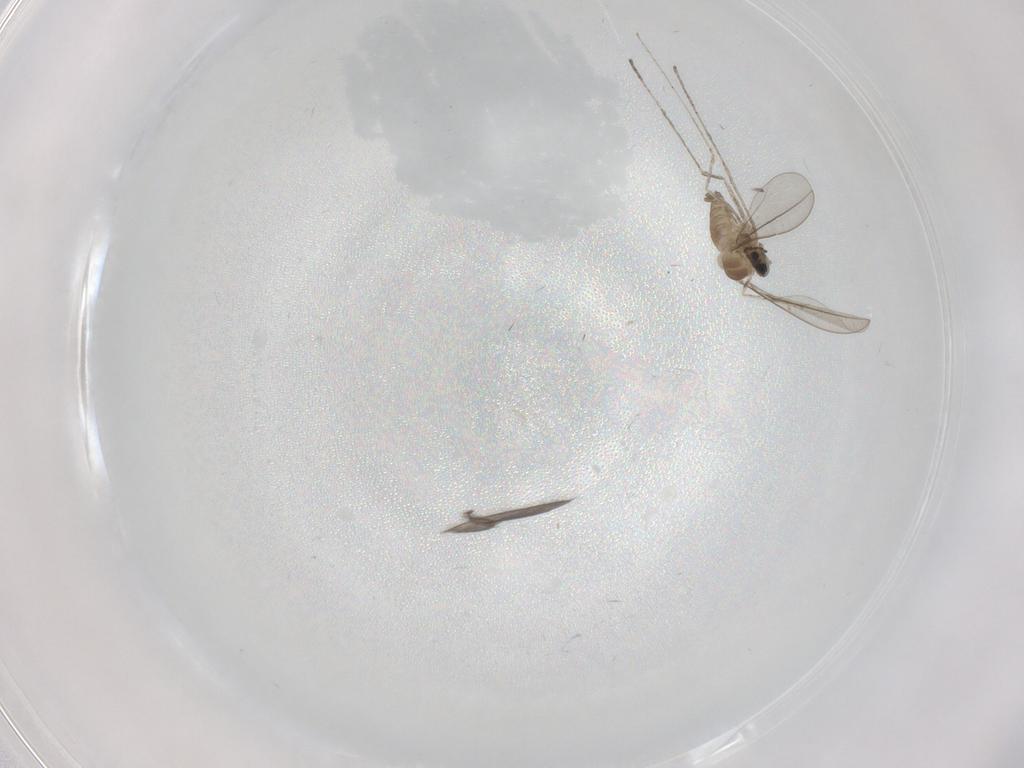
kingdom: Animalia
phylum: Arthropoda
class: Insecta
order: Diptera
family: Cecidomyiidae
